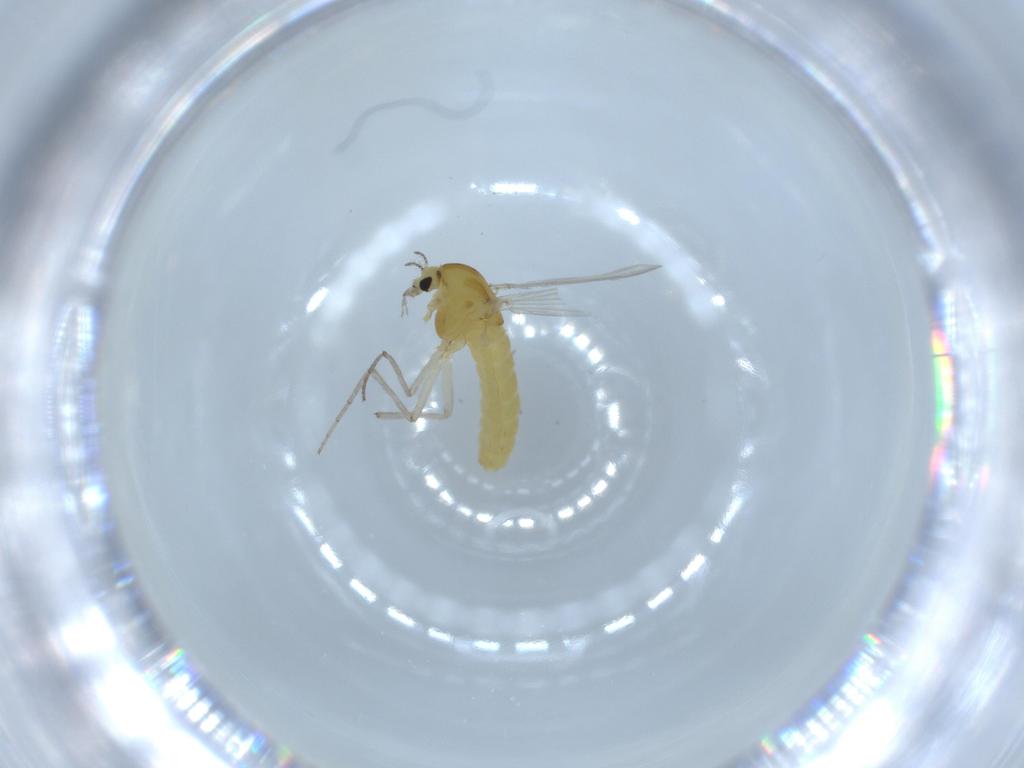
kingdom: Animalia
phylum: Arthropoda
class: Insecta
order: Diptera
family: Chironomidae
